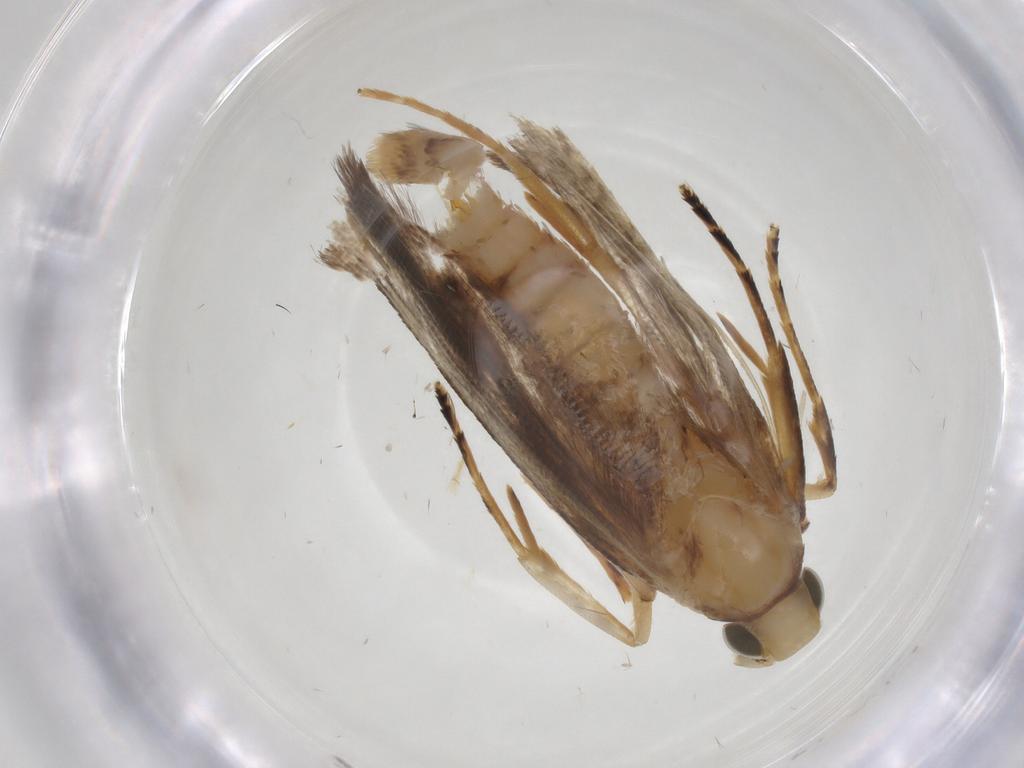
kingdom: Animalia
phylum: Arthropoda
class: Insecta
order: Lepidoptera
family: Gelechiidae
